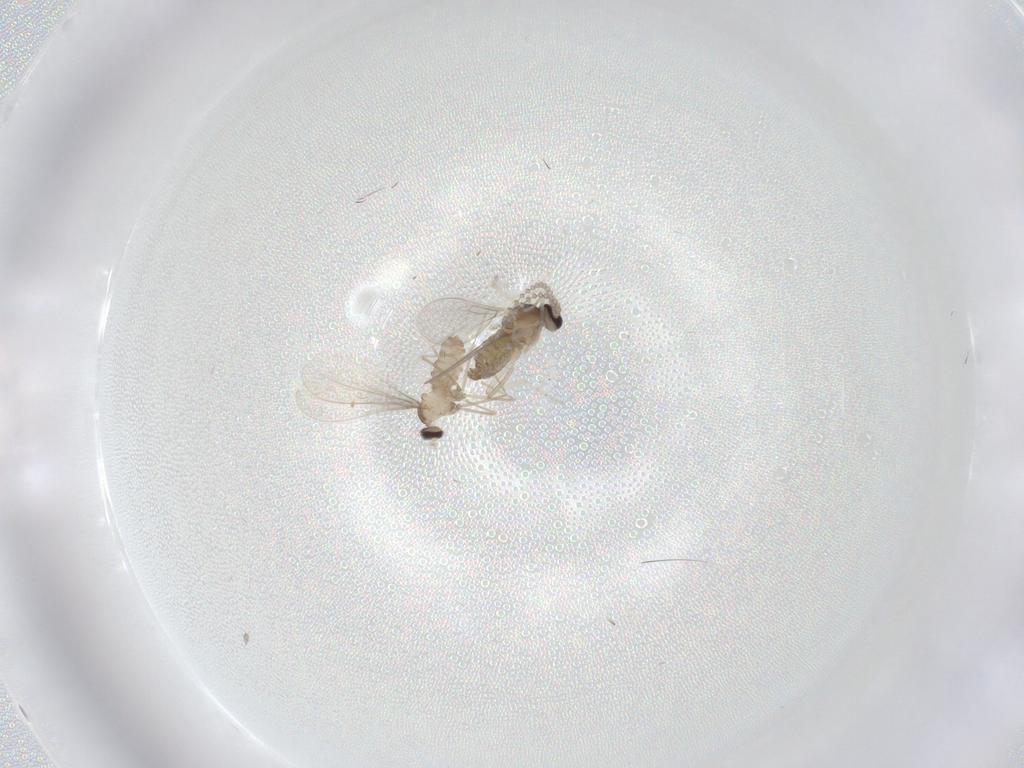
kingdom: Animalia
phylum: Arthropoda
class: Insecta
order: Diptera
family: Cecidomyiidae
